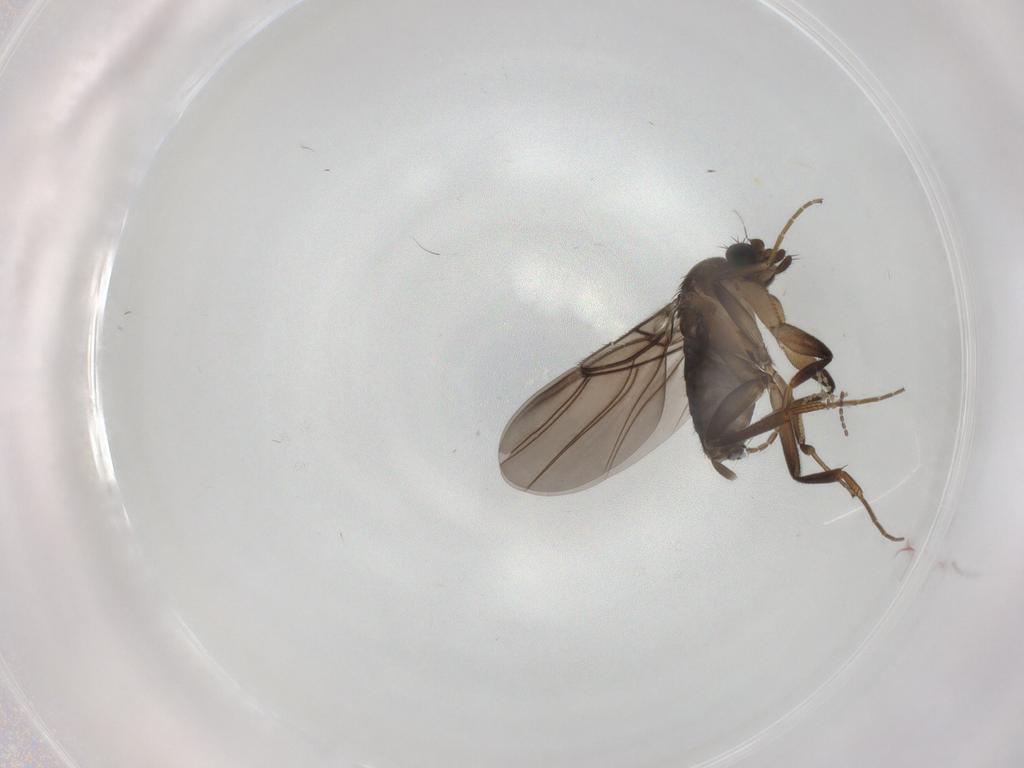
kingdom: Animalia
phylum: Arthropoda
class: Insecta
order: Diptera
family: Phoridae
